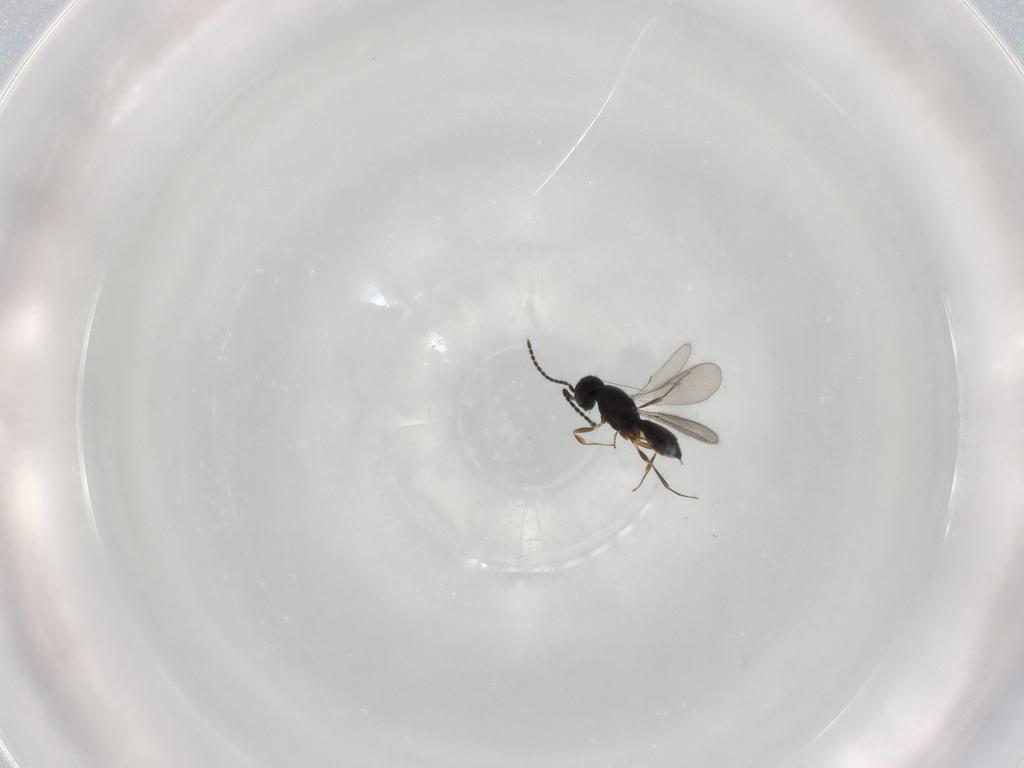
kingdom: Animalia
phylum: Arthropoda
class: Insecta
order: Hymenoptera
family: Scelionidae
